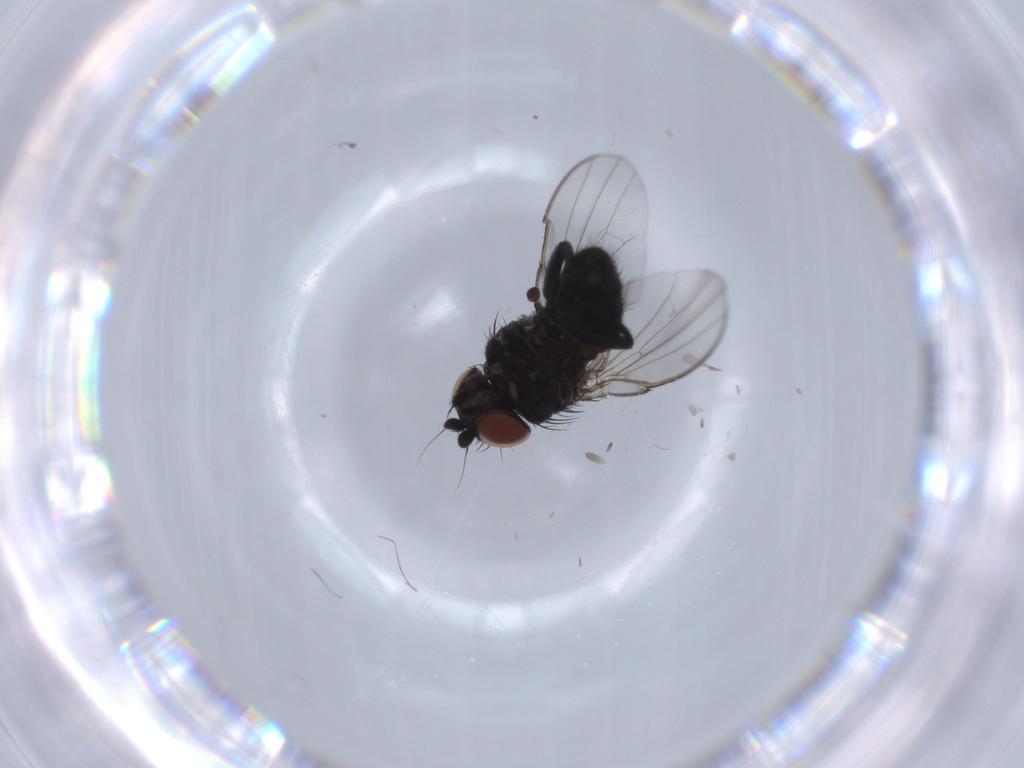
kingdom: Animalia
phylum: Arthropoda
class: Insecta
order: Diptera
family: Milichiidae
